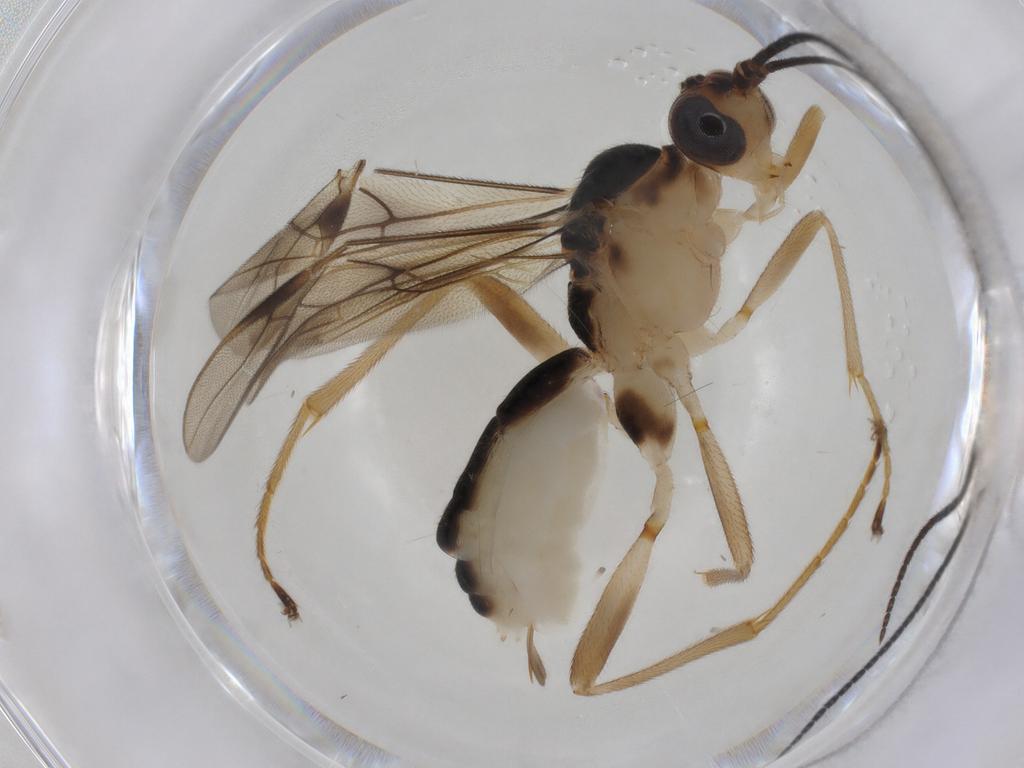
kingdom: Animalia
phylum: Arthropoda
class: Insecta
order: Hymenoptera
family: Braconidae
